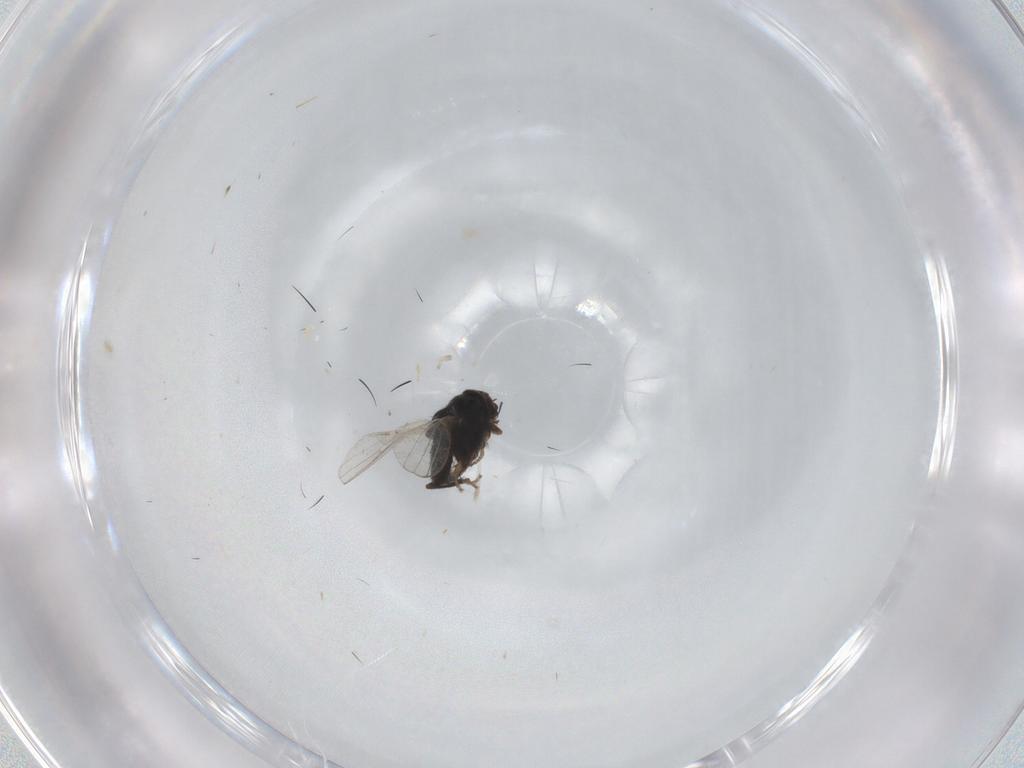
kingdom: Animalia
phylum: Arthropoda
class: Insecta
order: Diptera
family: Milichiidae
